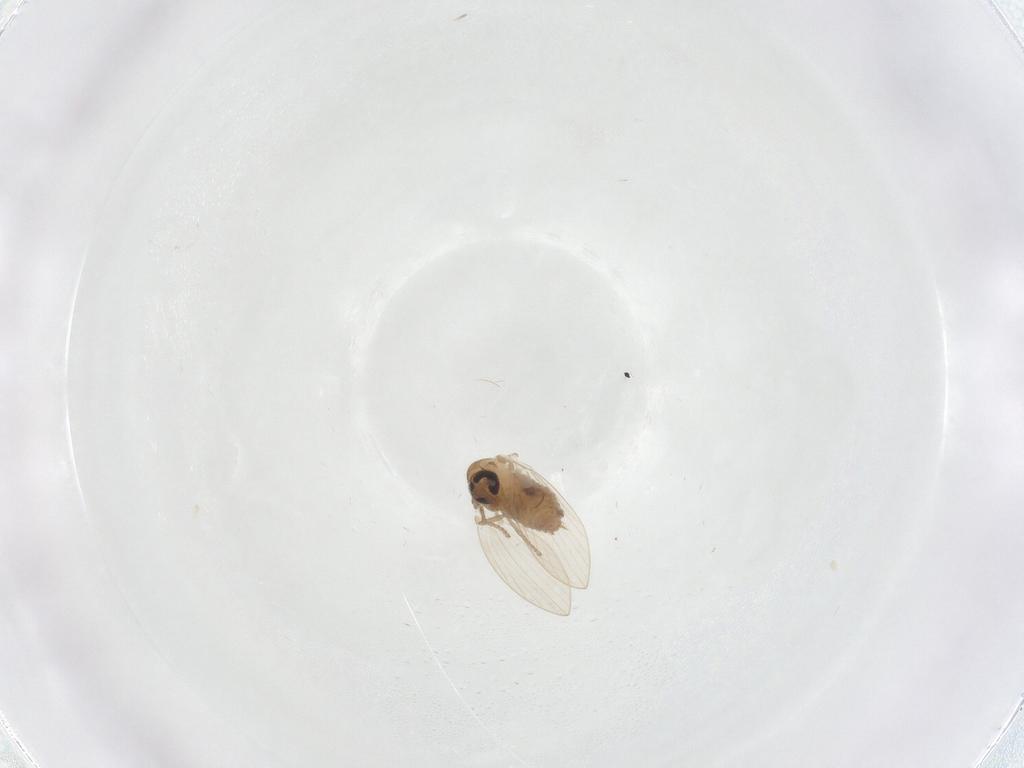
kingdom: Animalia
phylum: Arthropoda
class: Insecta
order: Diptera
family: Psychodidae
